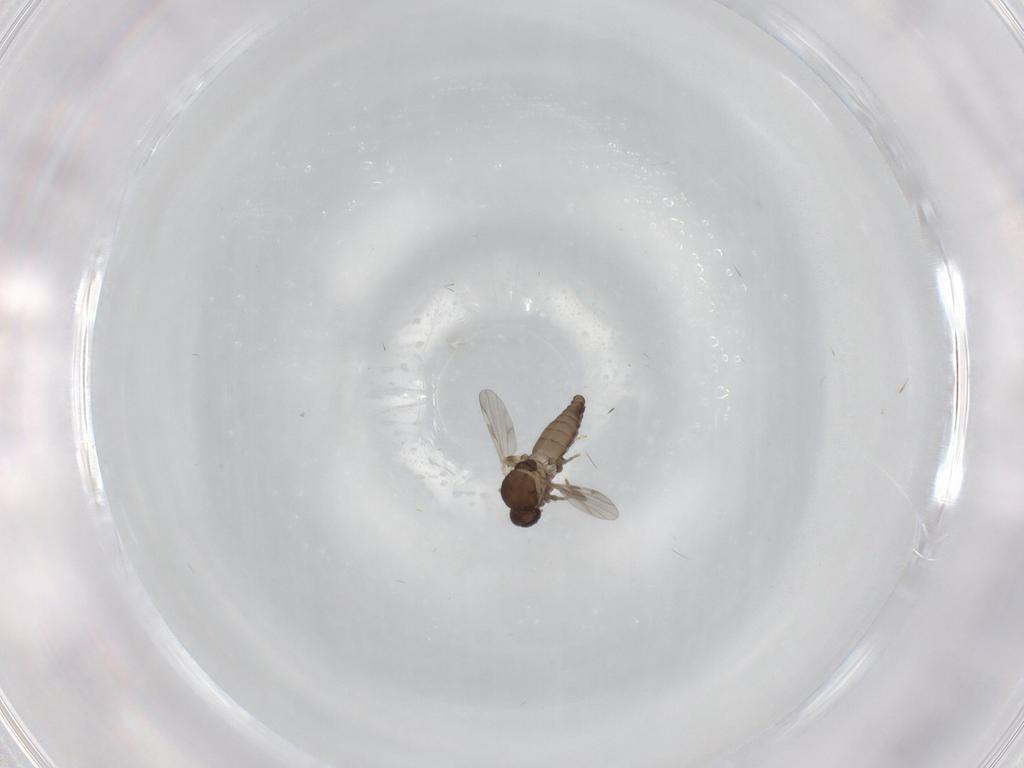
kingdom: Animalia
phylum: Arthropoda
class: Insecta
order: Diptera
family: Ceratopogonidae
